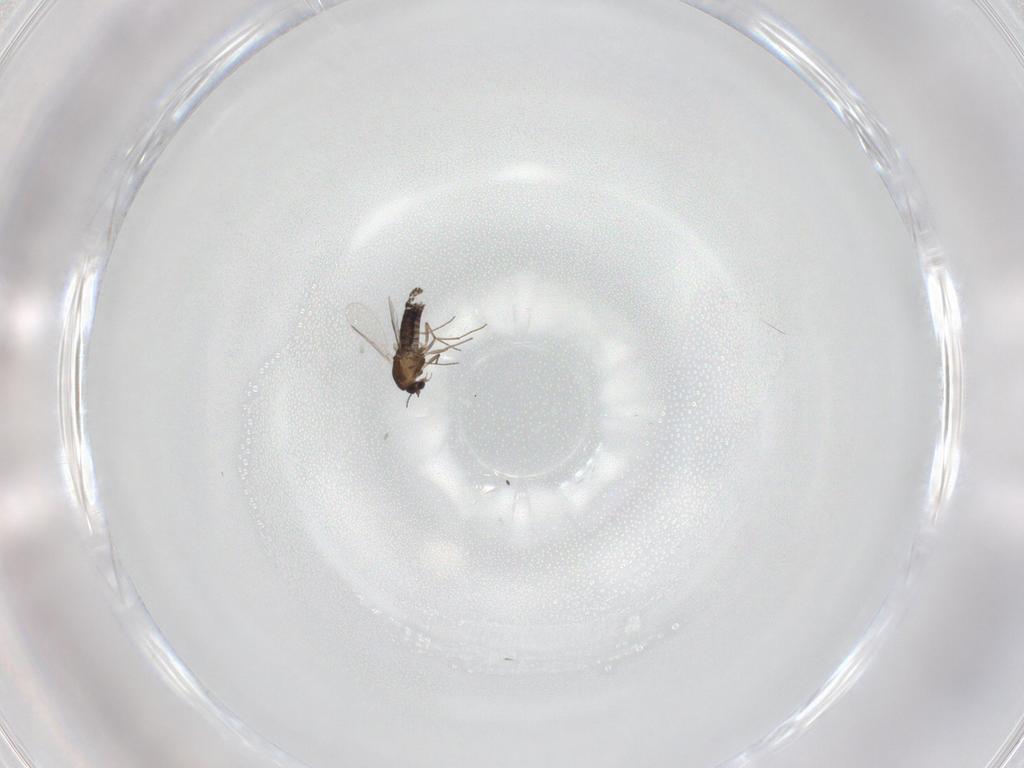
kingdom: Animalia
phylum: Arthropoda
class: Insecta
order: Diptera
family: Chironomidae
